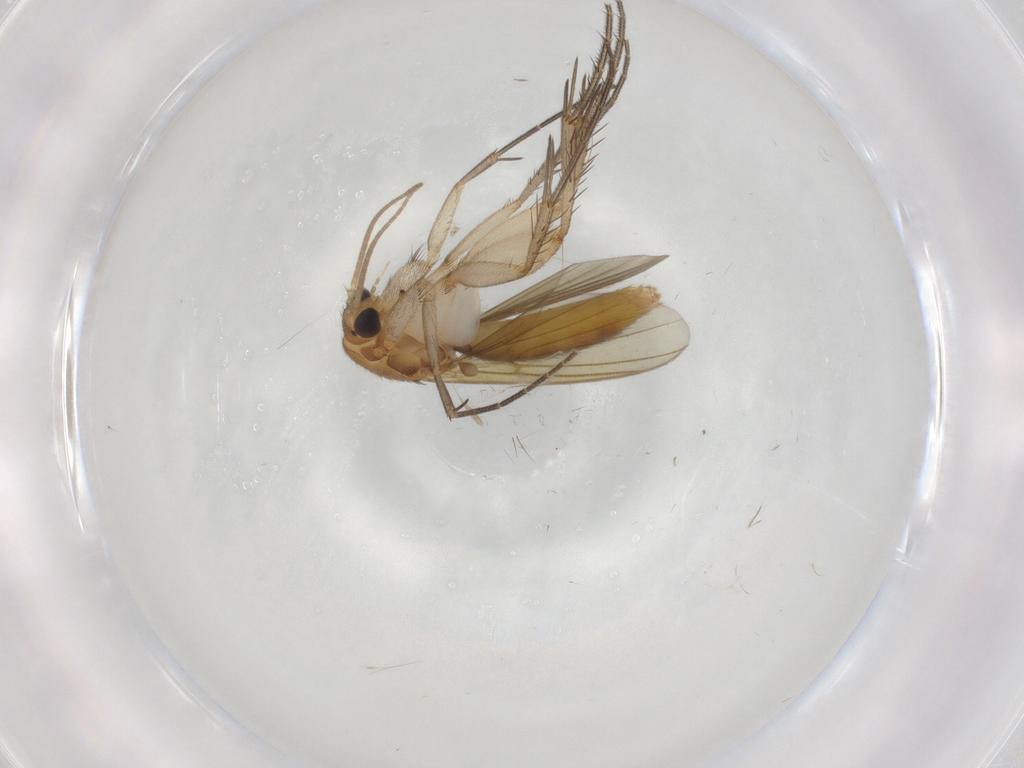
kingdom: Animalia
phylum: Arthropoda
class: Insecta
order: Diptera
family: Mycetophilidae
